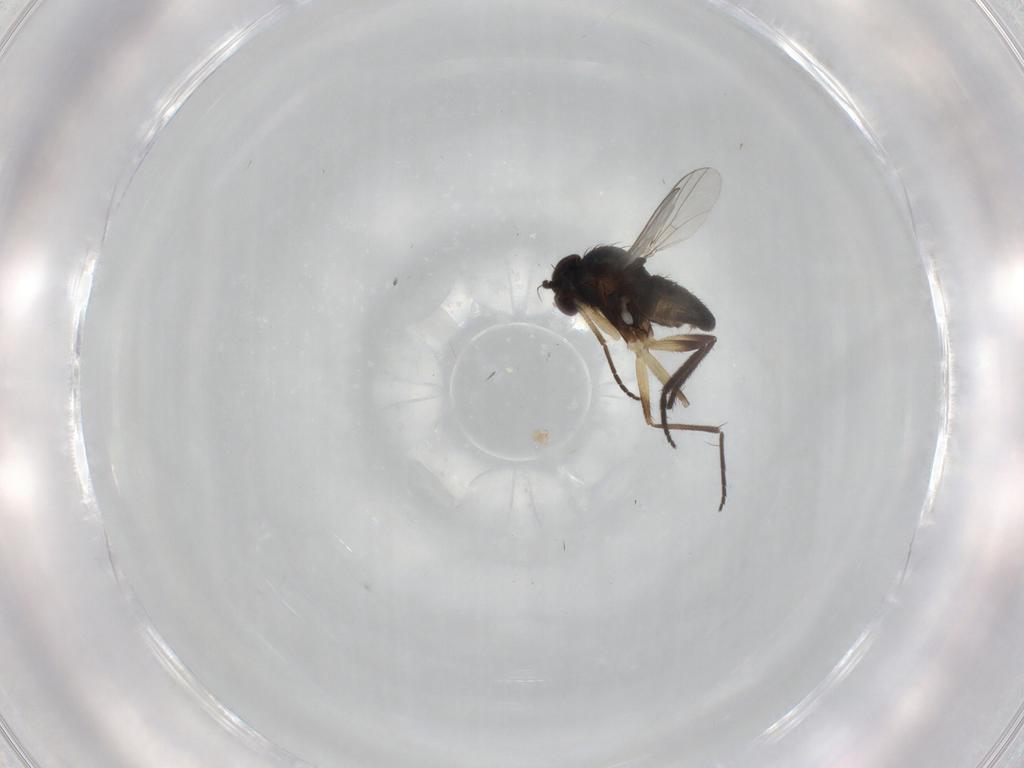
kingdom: Animalia
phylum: Arthropoda
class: Insecta
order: Diptera
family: Dolichopodidae
